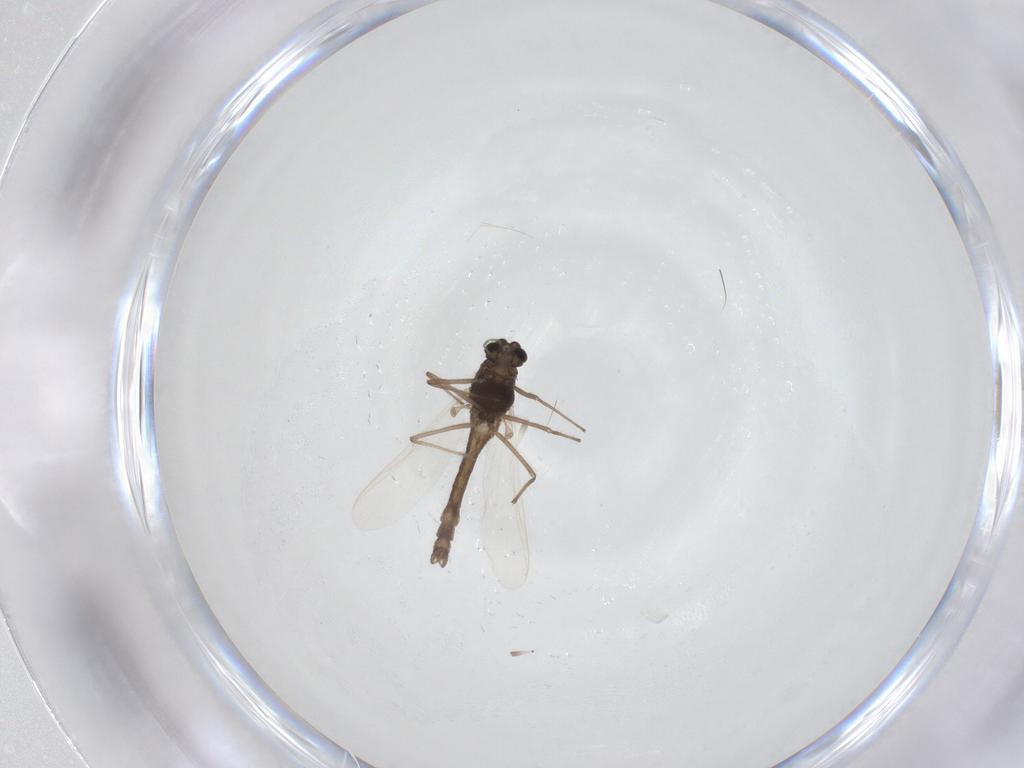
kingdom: Animalia
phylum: Arthropoda
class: Insecta
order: Diptera
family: Chironomidae
